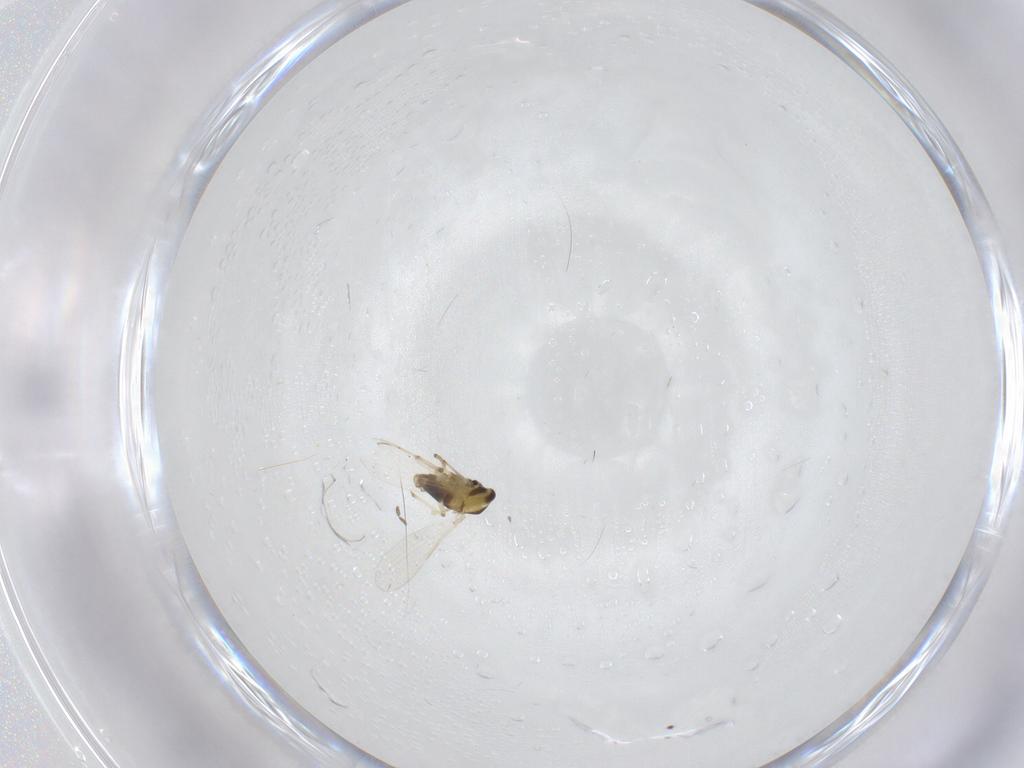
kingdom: Animalia
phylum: Arthropoda
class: Insecta
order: Diptera
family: Chironomidae
